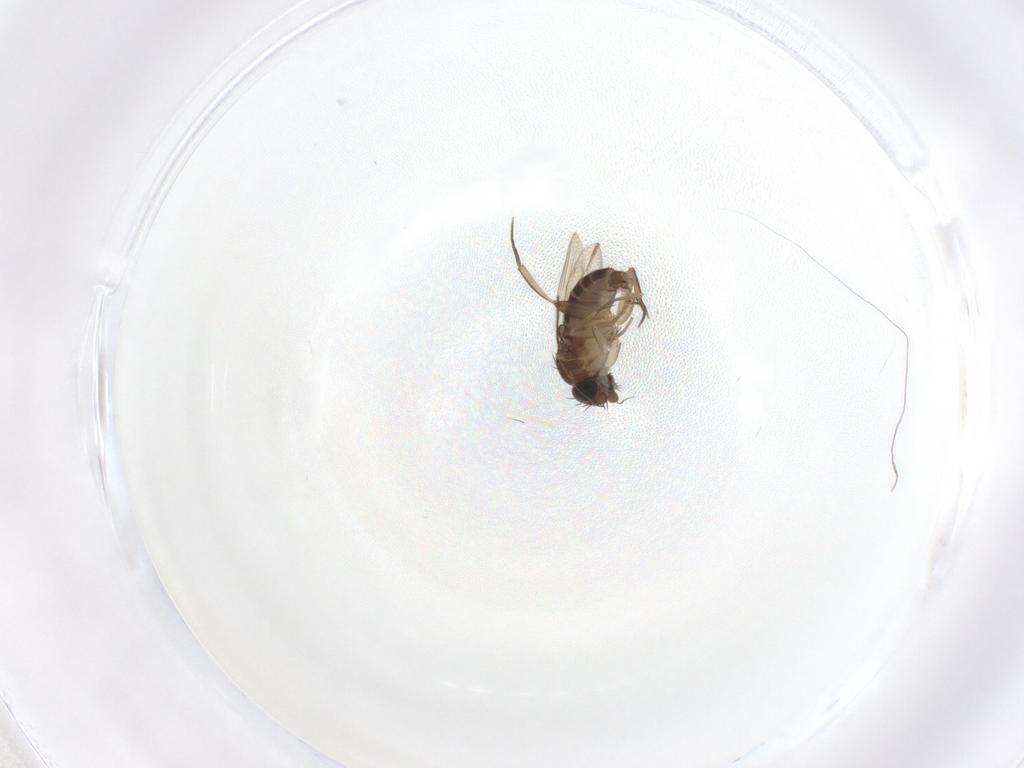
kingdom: Animalia
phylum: Arthropoda
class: Insecta
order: Diptera
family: Phoridae
